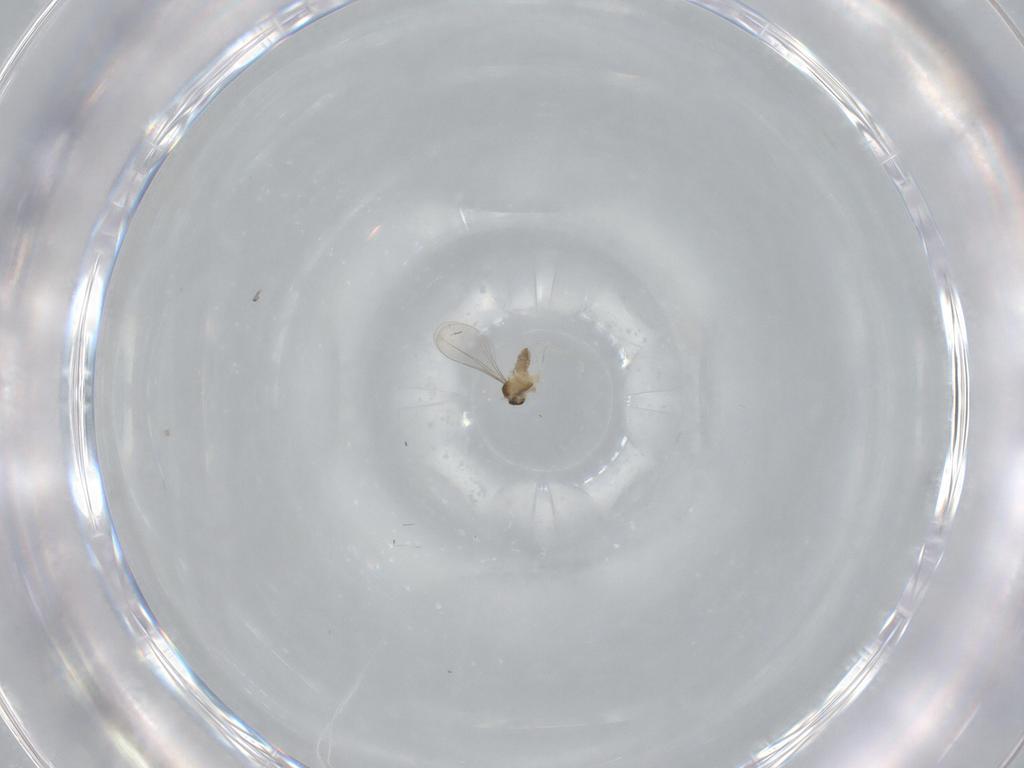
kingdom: Animalia
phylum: Arthropoda
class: Insecta
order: Diptera
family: Cecidomyiidae
